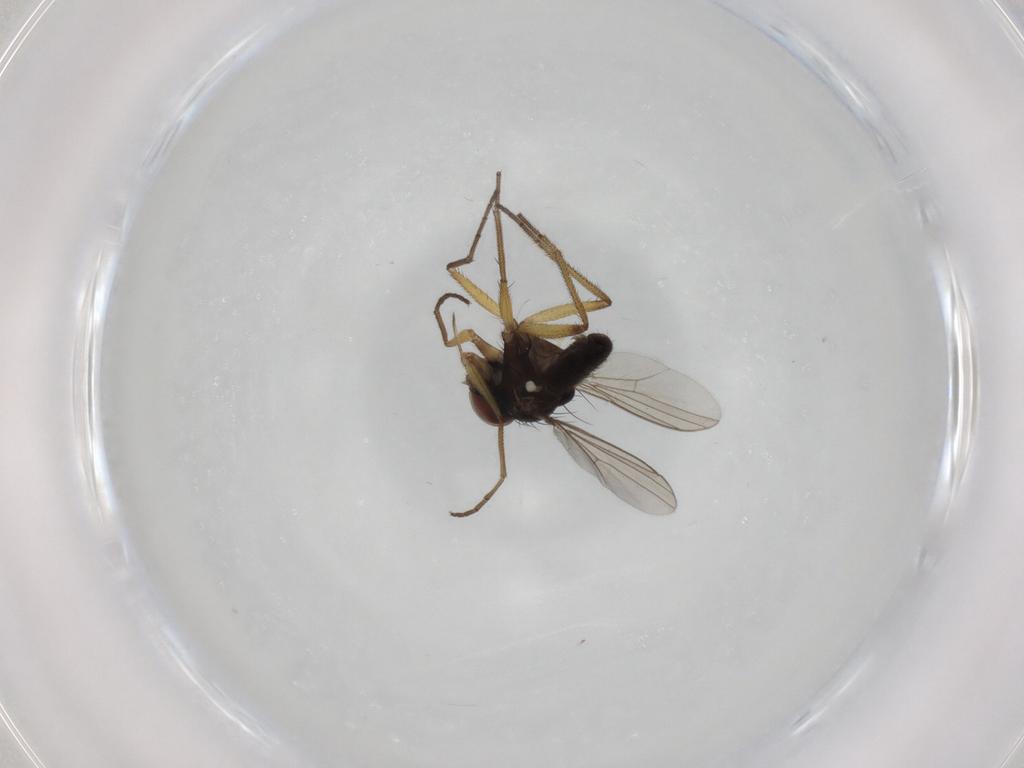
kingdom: Animalia
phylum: Arthropoda
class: Insecta
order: Diptera
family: Dolichopodidae
